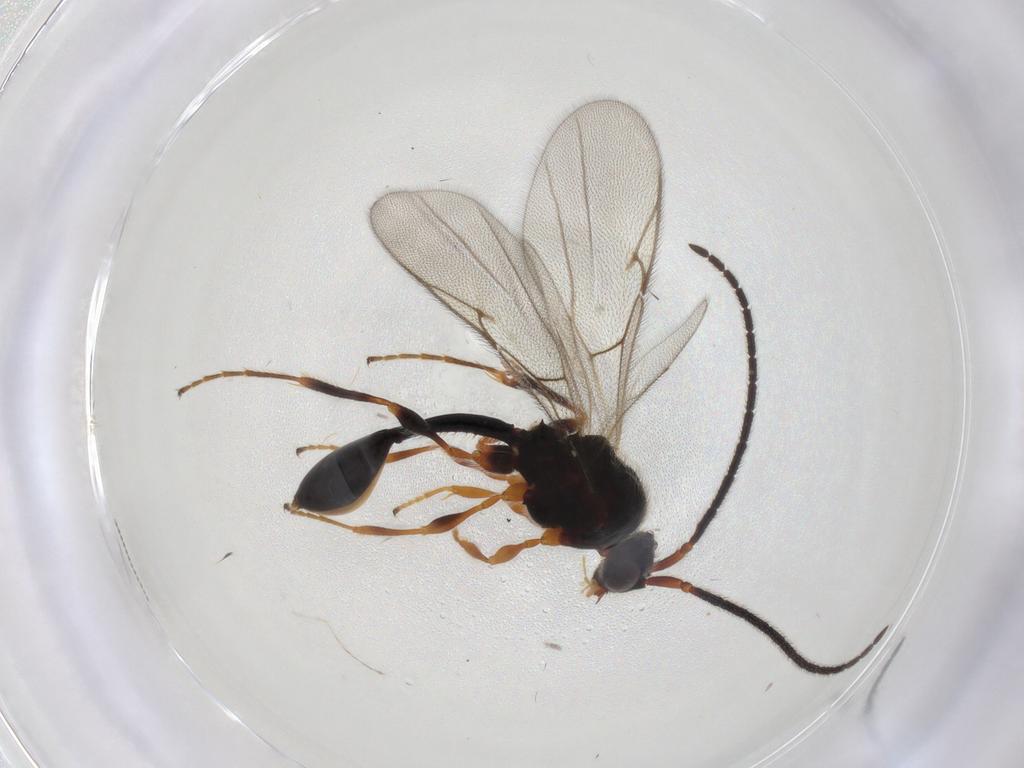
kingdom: Animalia
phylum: Arthropoda
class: Insecta
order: Hymenoptera
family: Diapriidae
